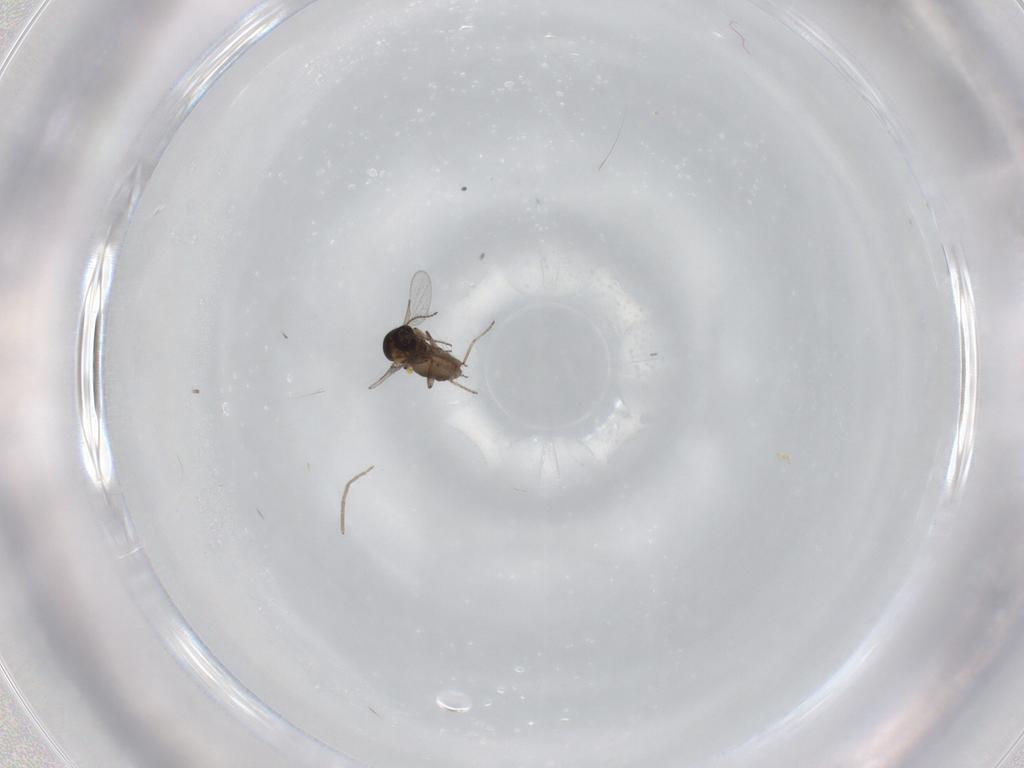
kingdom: Animalia
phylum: Arthropoda
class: Insecta
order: Diptera
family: Ceratopogonidae
